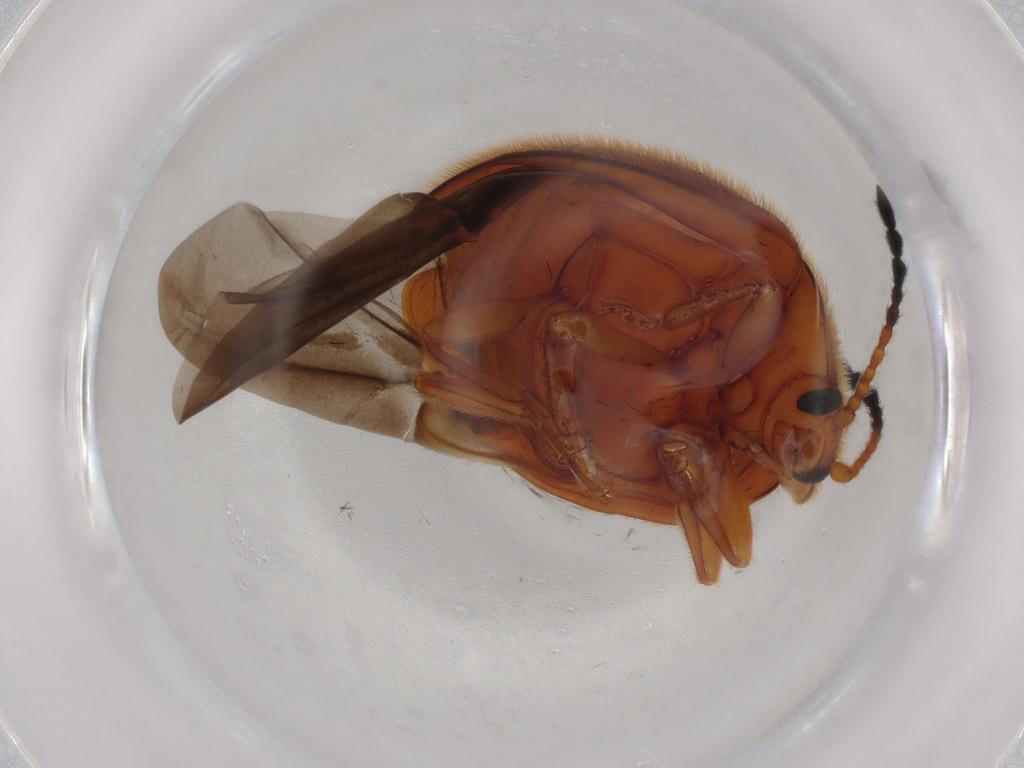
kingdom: Animalia
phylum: Arthropoda
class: Insecta
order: Coleoptera
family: Endomychidae
